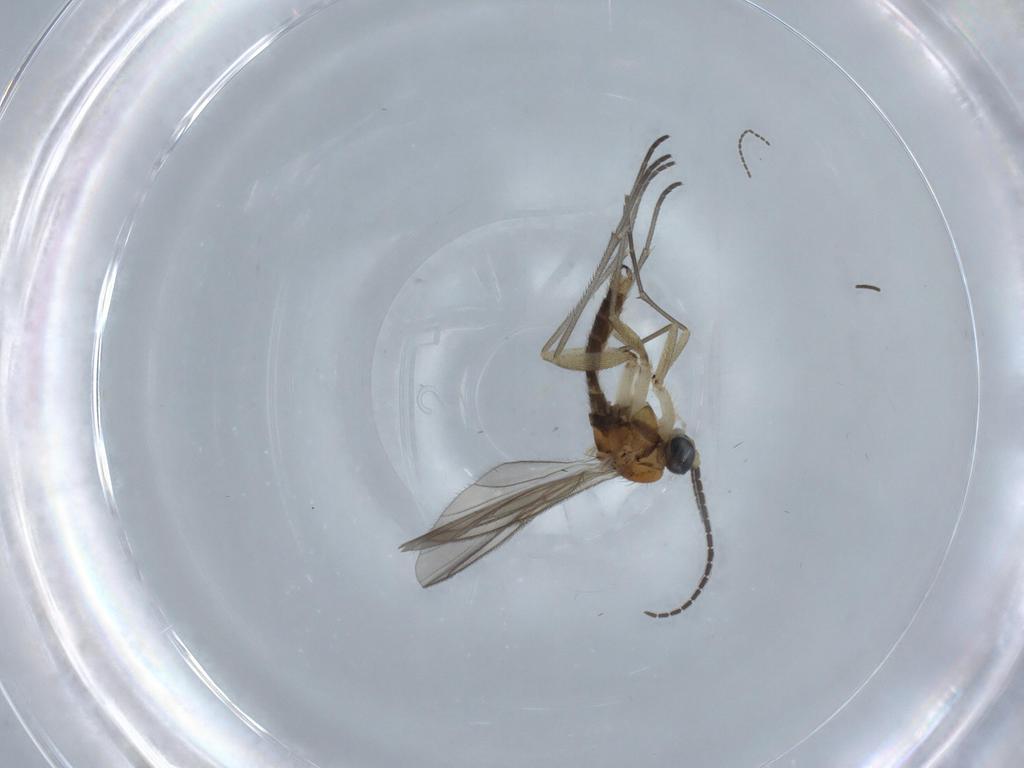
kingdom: Animalia
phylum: Arthropoda
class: Insecta
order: Diptera
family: Sciaridae
